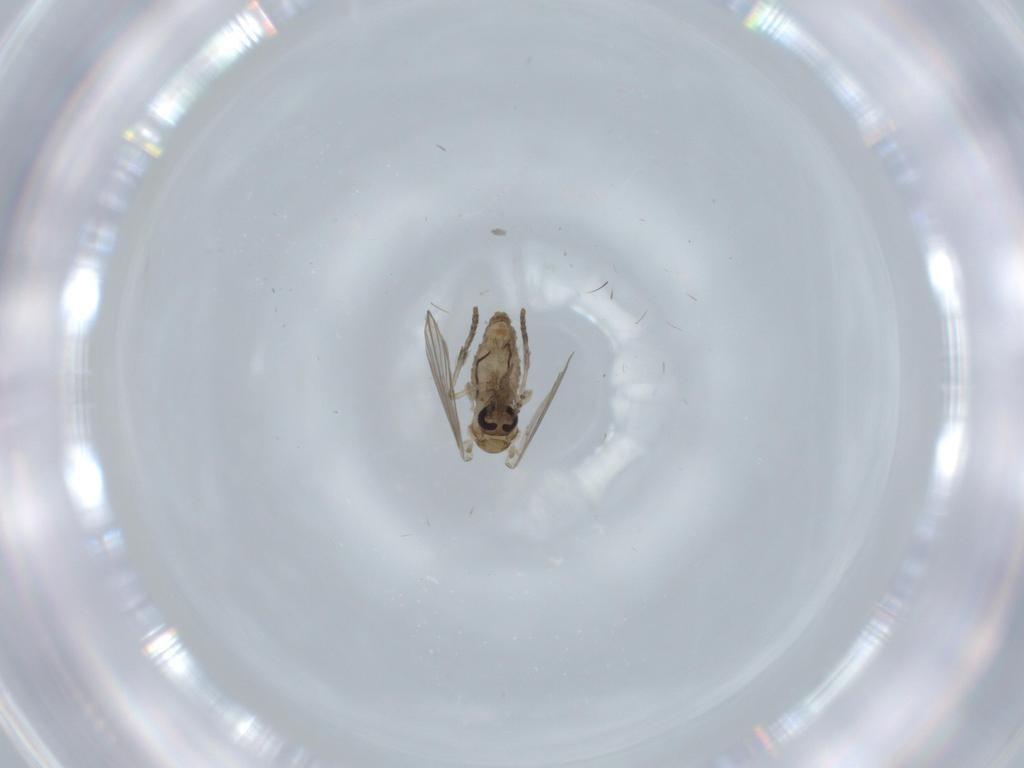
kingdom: Animalia
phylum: Arthropoda
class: Insecta
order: Diptera
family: Psychodidae
